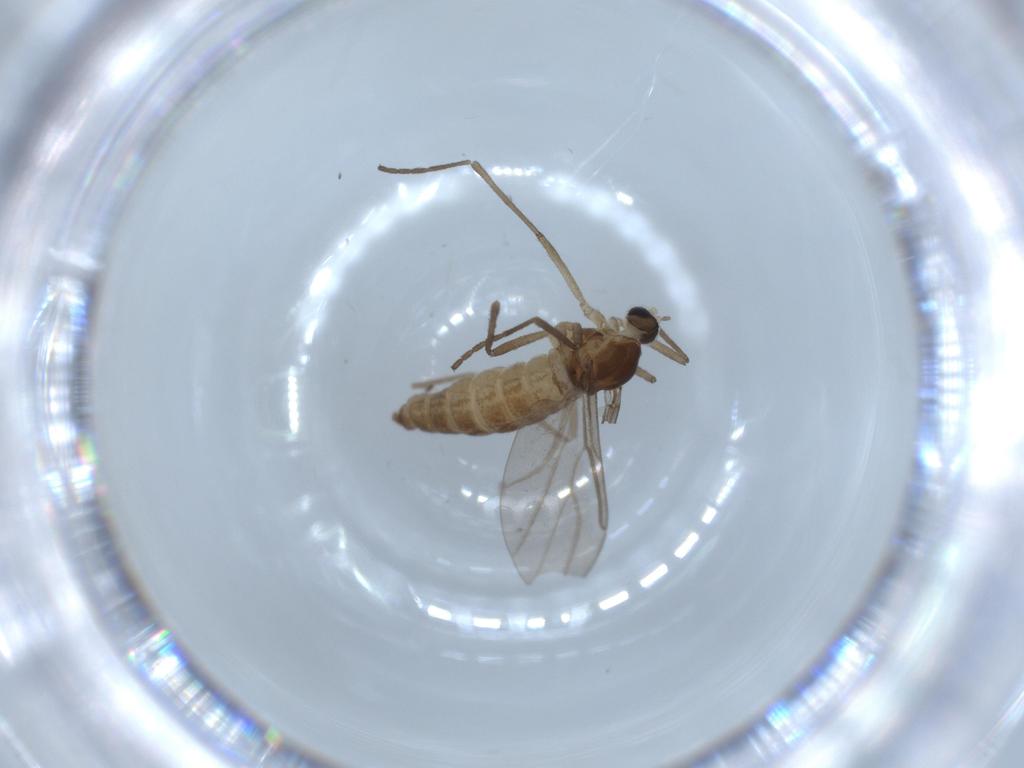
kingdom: Animalia
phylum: Arthropoda
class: Insecta
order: Diptera
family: Cecidomyiidae
